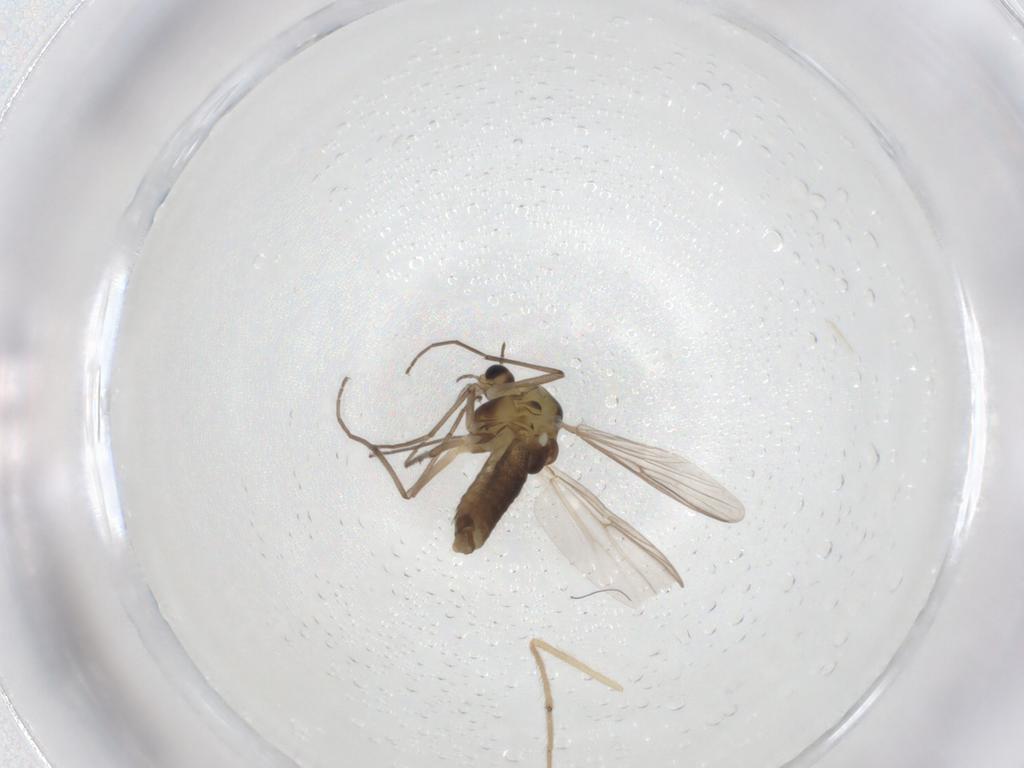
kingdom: Animalia
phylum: Arthropoda
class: Insecta
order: Diptera
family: Chironomidae
